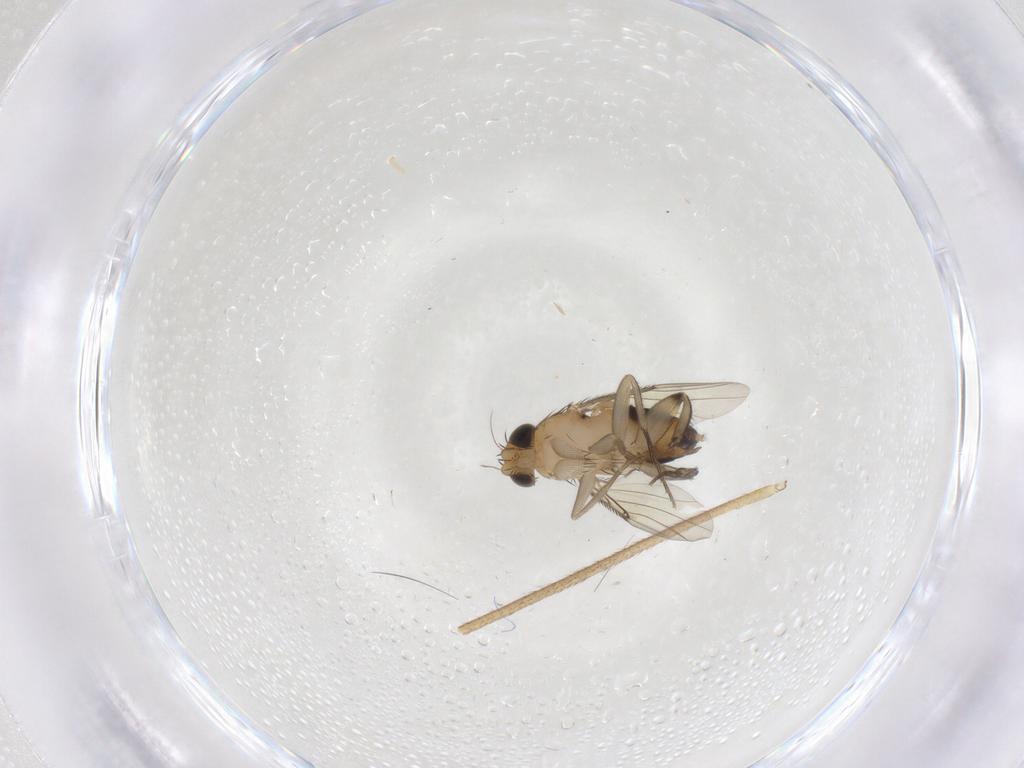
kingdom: Animalia
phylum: Arthropoda
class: Insecta
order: Diptera
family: Phoridae
